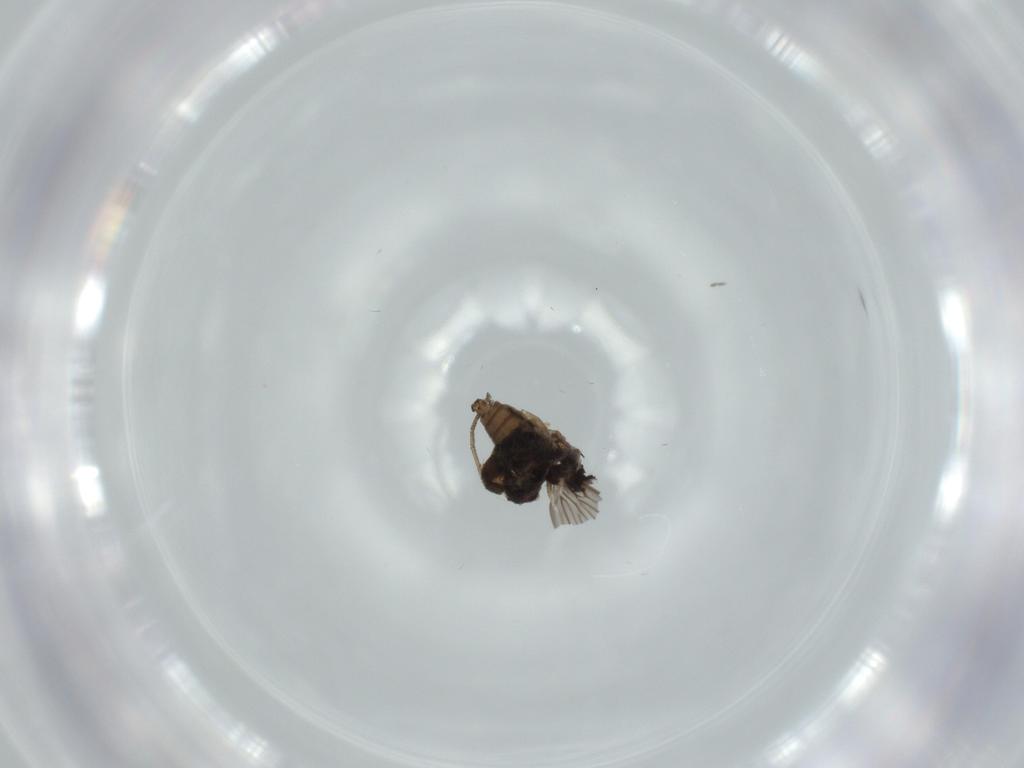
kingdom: Animalia
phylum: Arthropoda
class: Insecta
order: Diptera
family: Psychodidae
